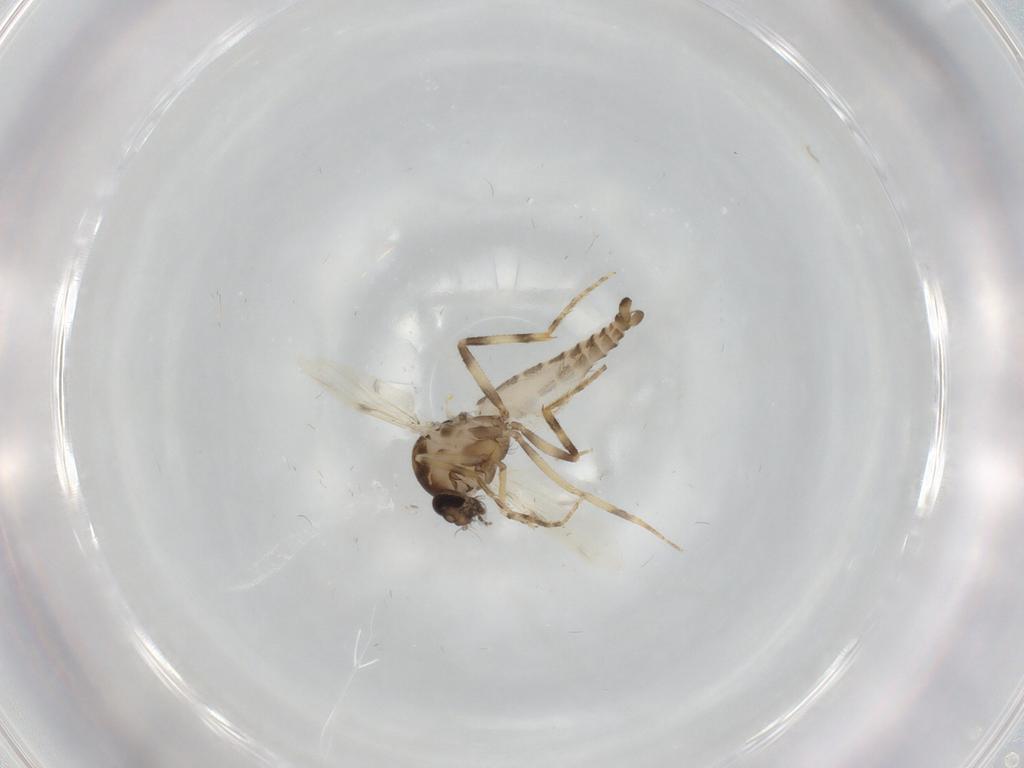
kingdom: Animalia
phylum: Arthropoda
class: Insecta
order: Diptera
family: Ceratopogonidae
